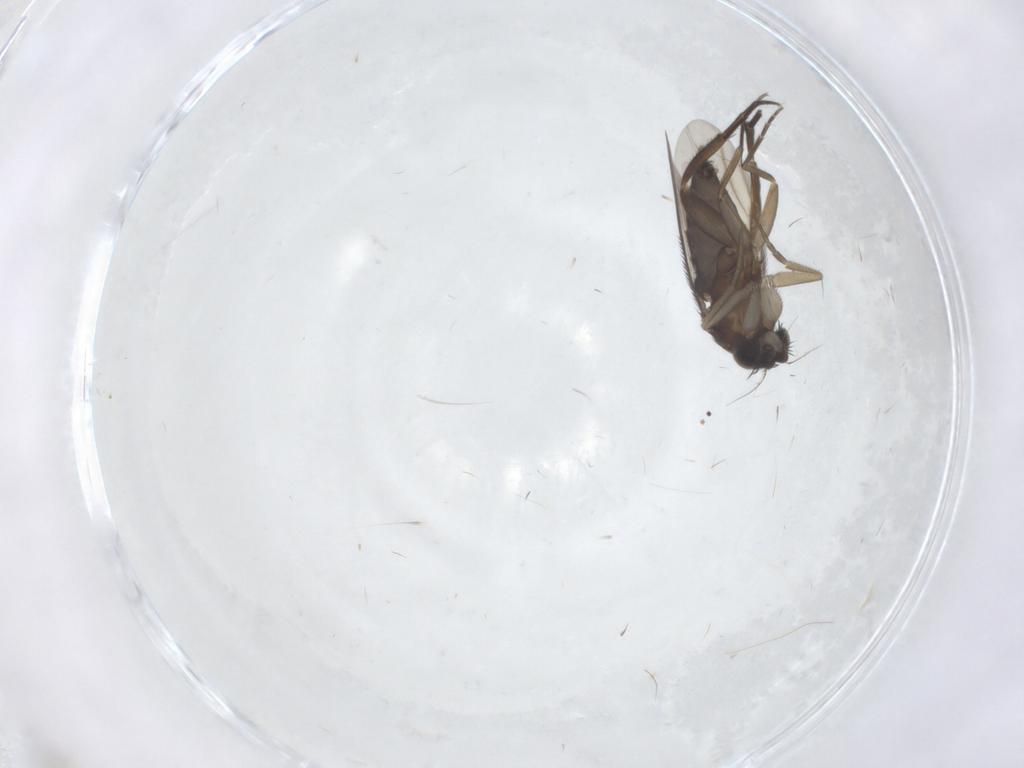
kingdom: Animalia
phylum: Arthropoda
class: Insecta
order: Diptera
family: Phoridae
